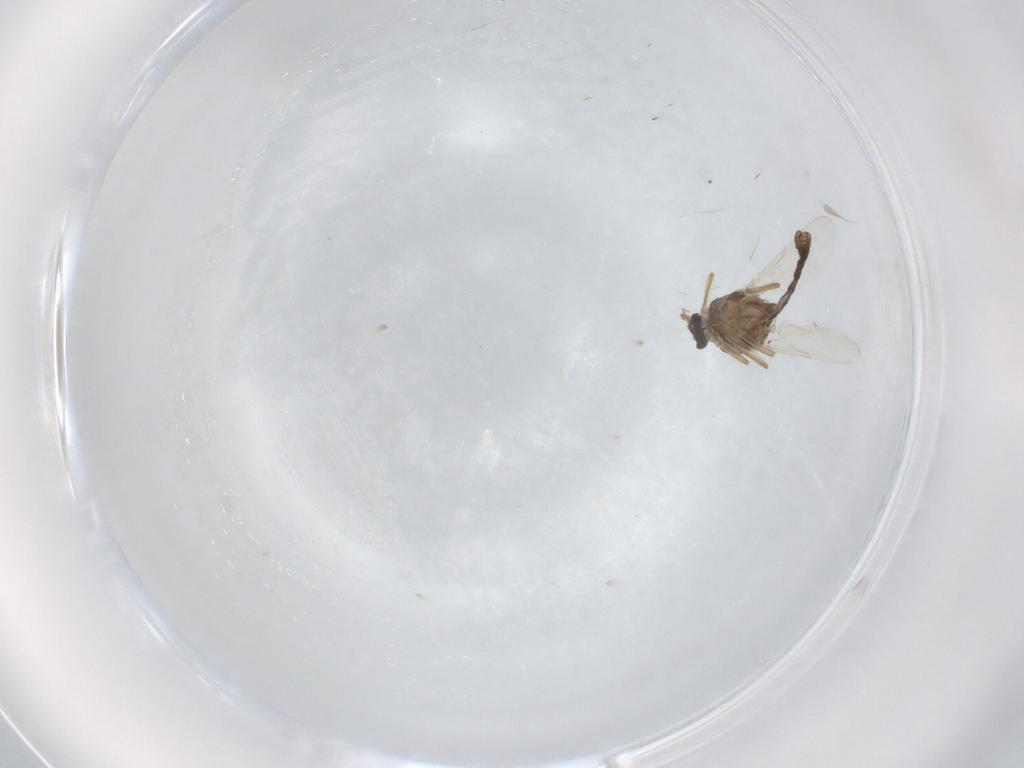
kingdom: Animalia
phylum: Arthropoda
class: Insecta
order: Diptera
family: Ceratopogonidae
